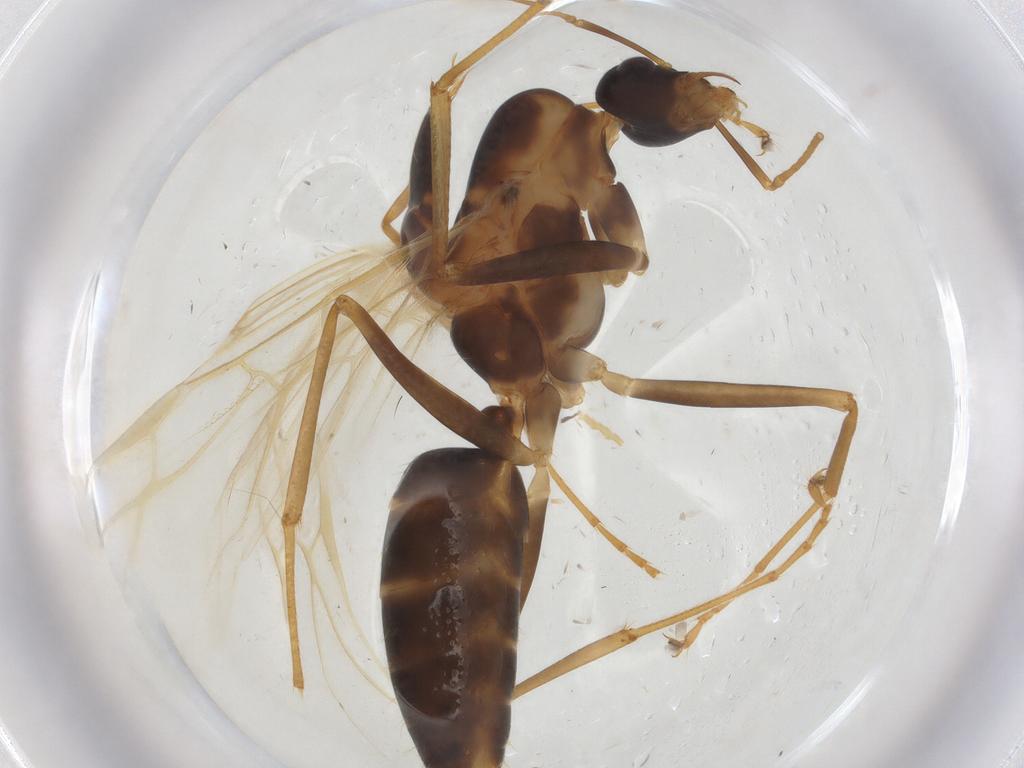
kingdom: Animalia
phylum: Arthropoda
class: Insecta
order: Hymenoptera
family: Formicidae
